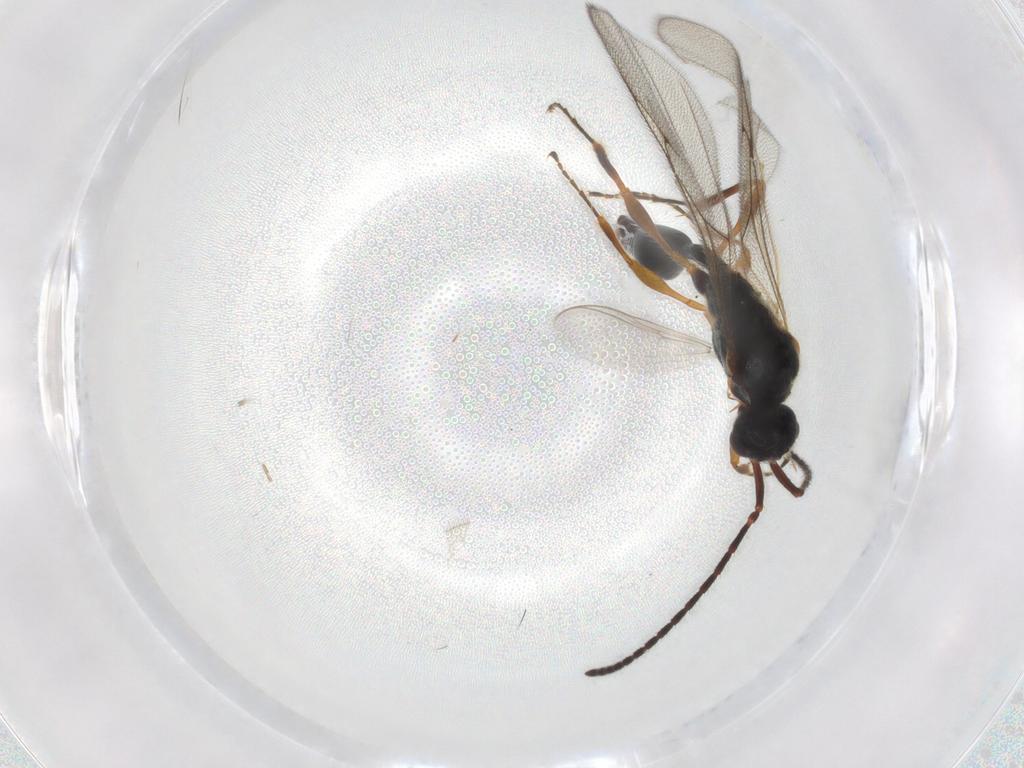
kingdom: Animalia
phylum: Arthropoda
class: Insecta
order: Hymenoptera
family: Diapriidae
